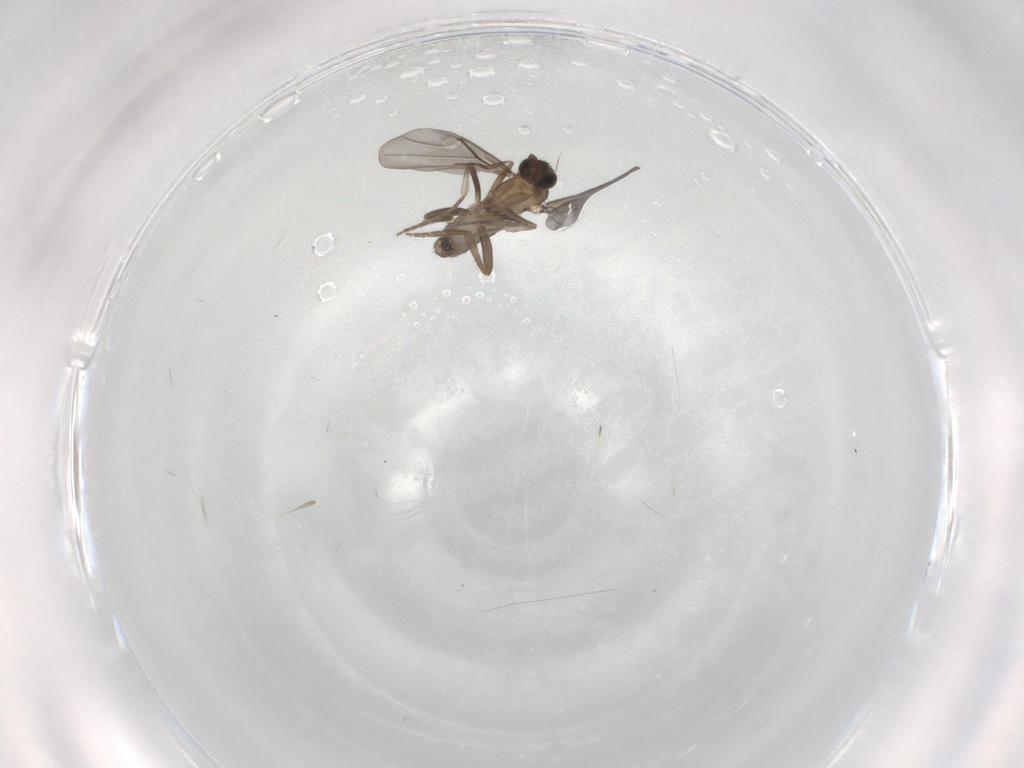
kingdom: Animalia
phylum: Arthropoda
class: Insecta
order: Diptera
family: Phoridae
